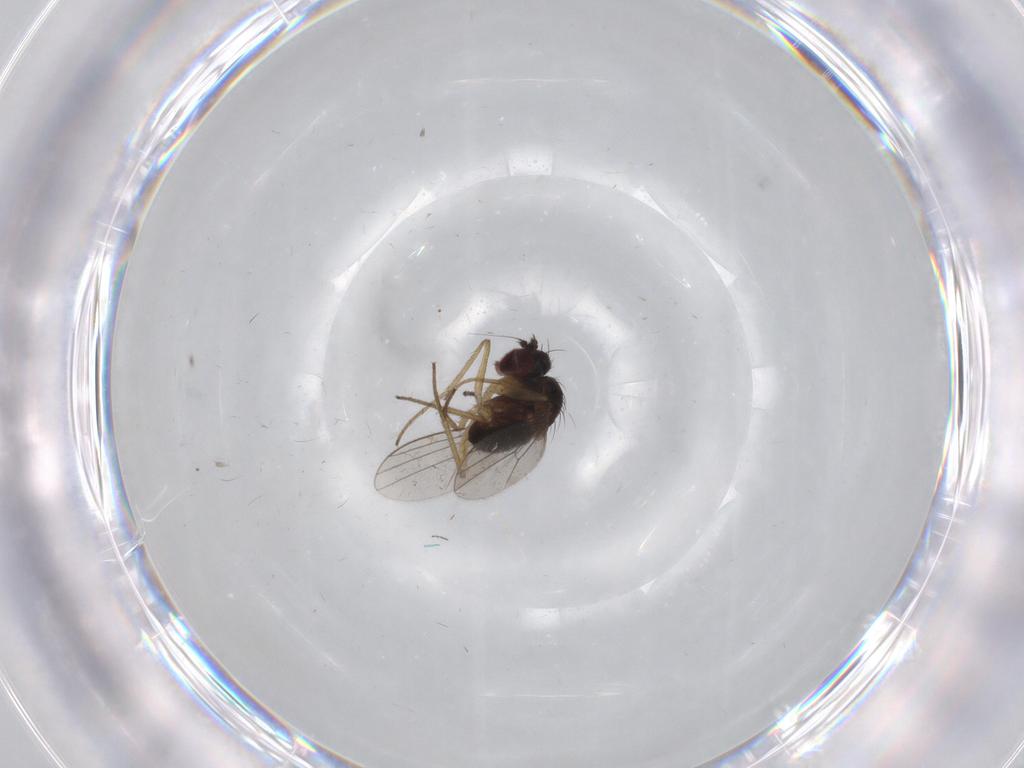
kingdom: Animalia
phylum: Arthropoda
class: Insecta
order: Diptera
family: Dolichopodidae
